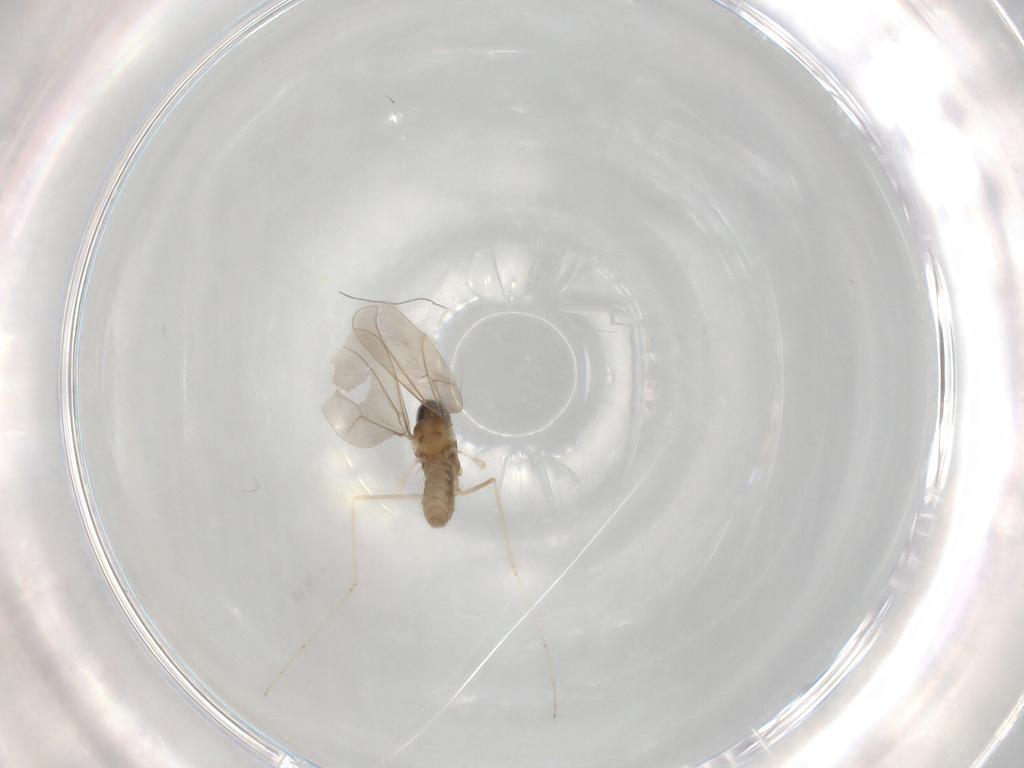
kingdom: Animalia
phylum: Arthropoda
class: Insecta
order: Diptera
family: Cecidomyiidae
